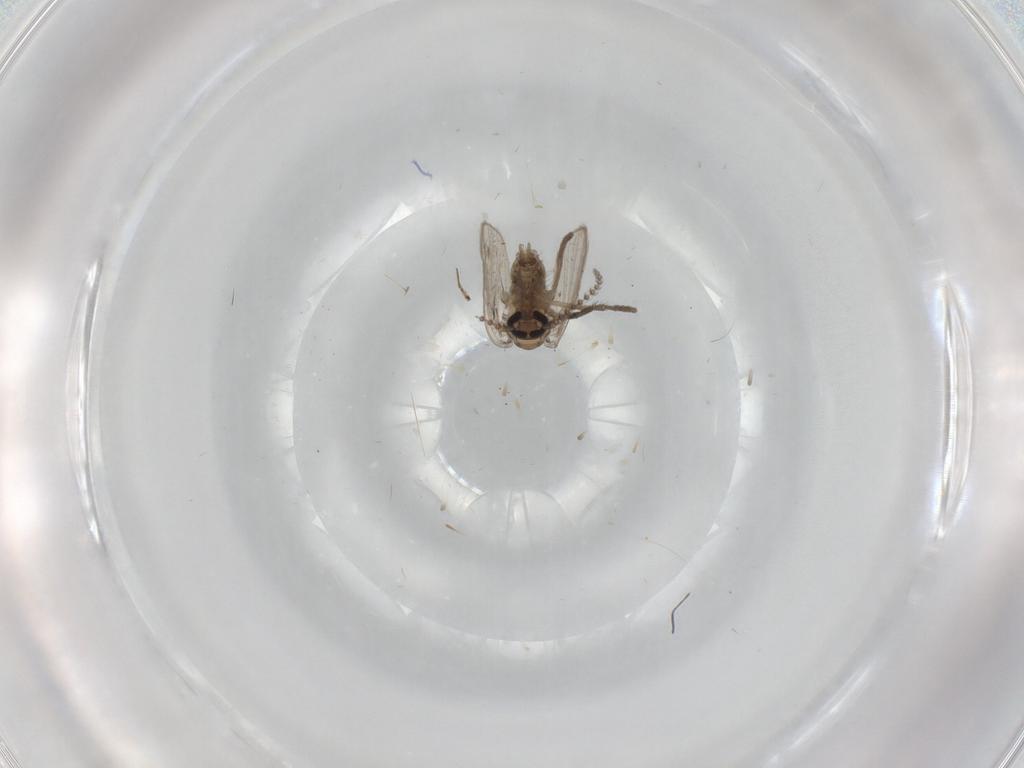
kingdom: Animalia
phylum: Arthropoda
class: Insecta
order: Diptera
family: Psychodidae
